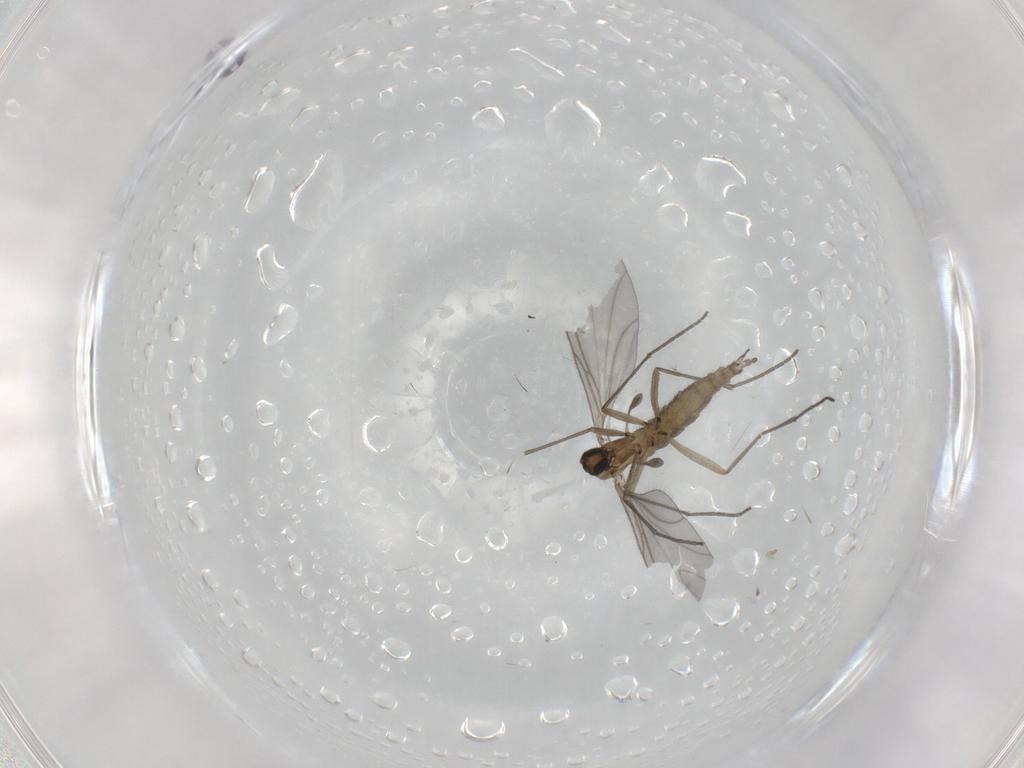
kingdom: Animalia
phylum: Arthropoda
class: Insecta
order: Diptera
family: Sciaridae
